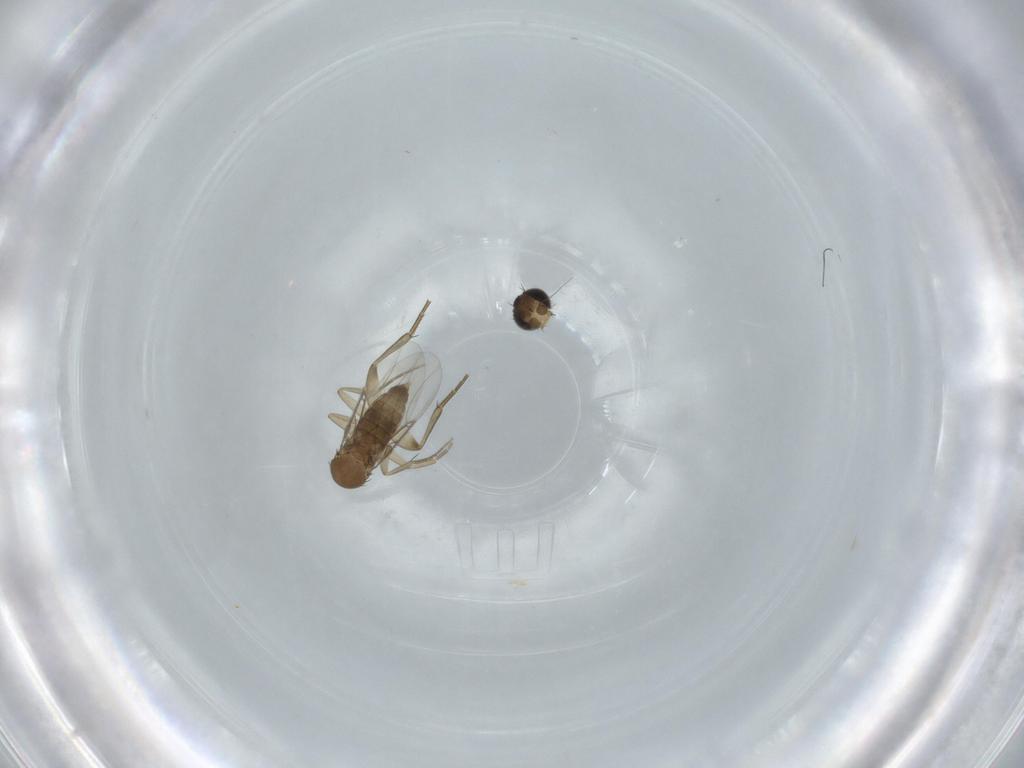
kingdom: Animalia
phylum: Arthropoda
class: Insecta
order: Diptera
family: Phoridae
